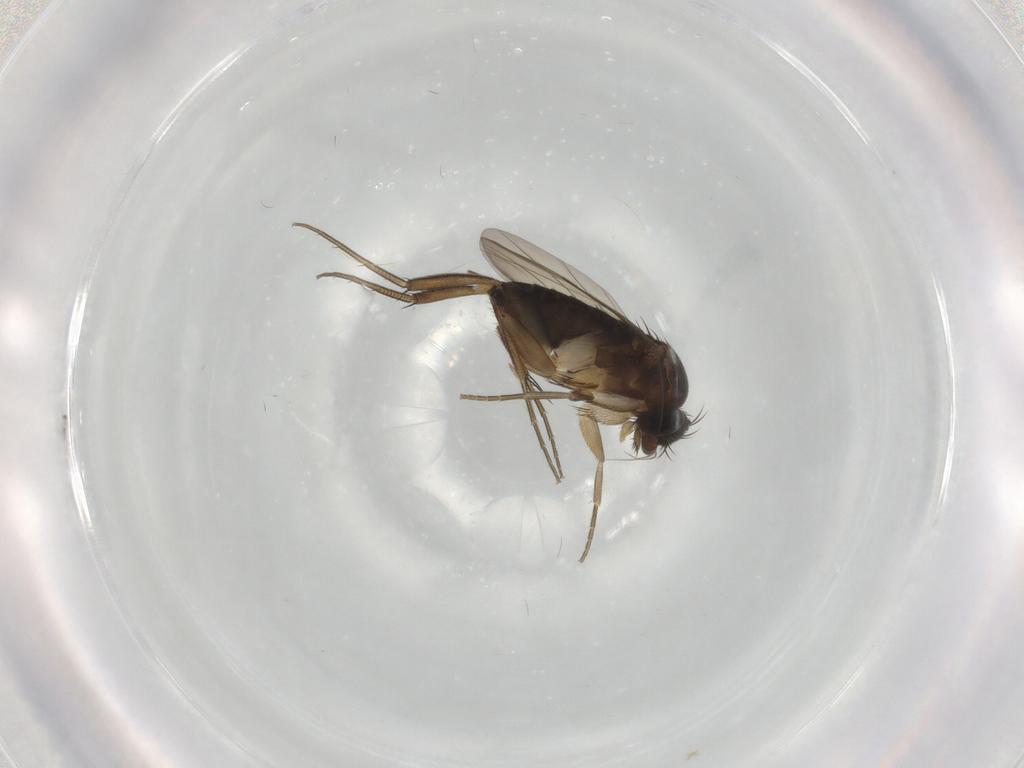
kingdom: Animalia
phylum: Arthropoda
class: Insecta
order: Diptera
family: Phoridae
